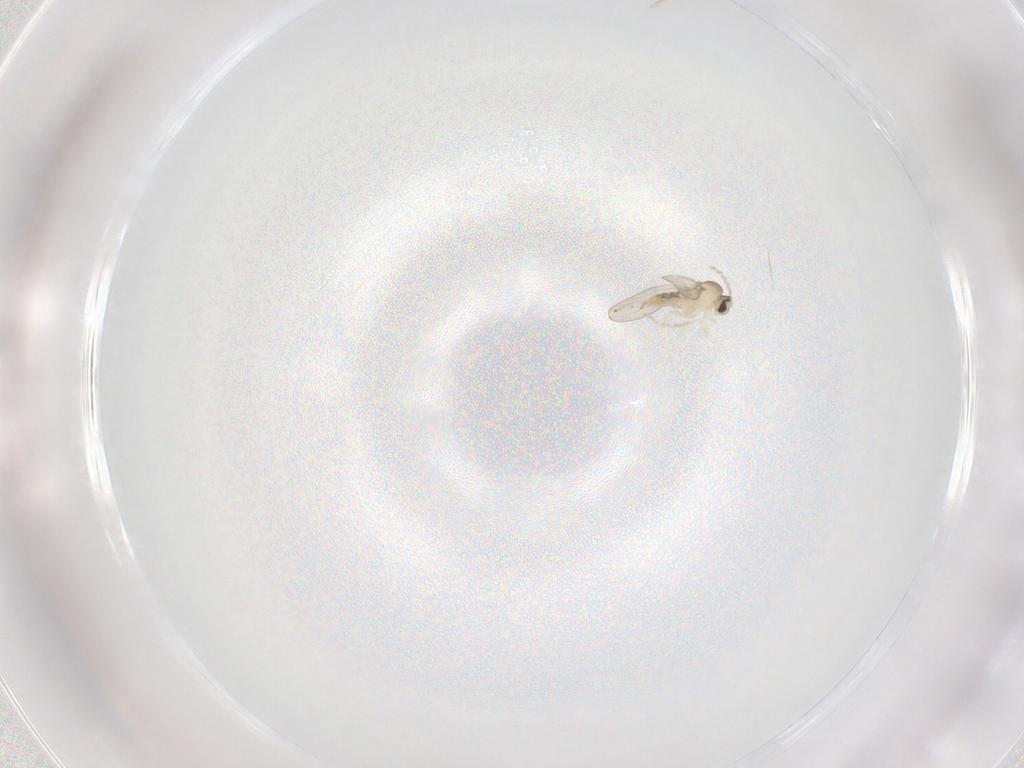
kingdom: Animalia
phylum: Arthropoda
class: Insecta
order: Diptera
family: Cecidomyiidae
